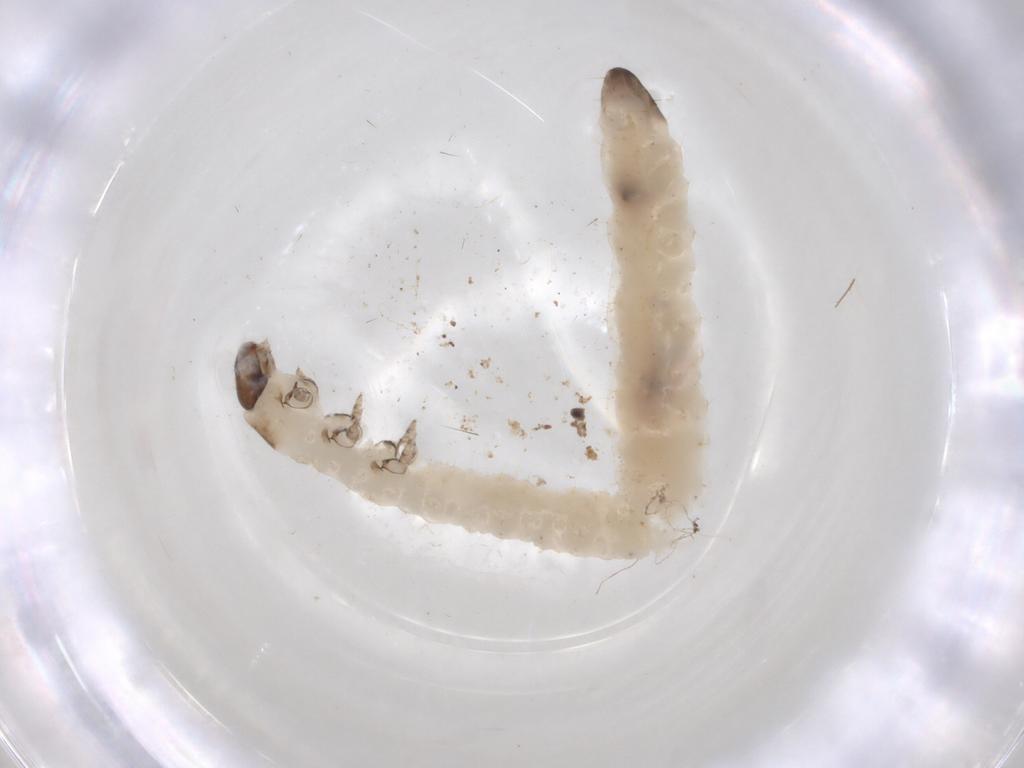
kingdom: Animalia
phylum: Arthropoda
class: Insecta
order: Coleoptera
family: Chrysomelidae
